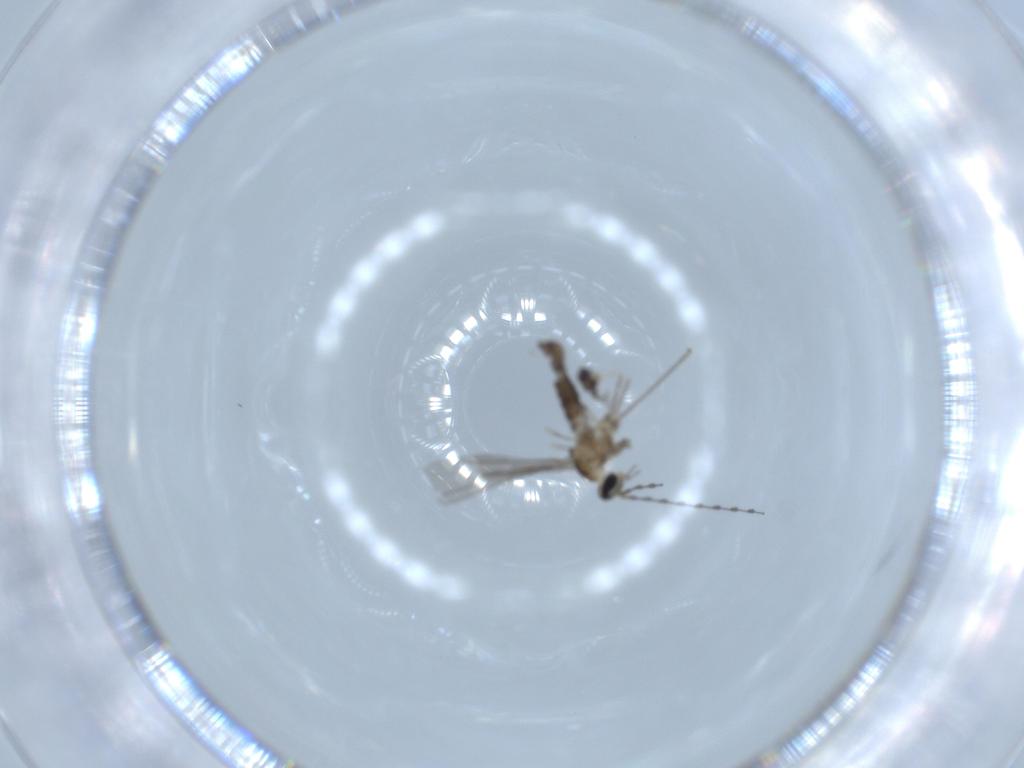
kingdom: Animalia
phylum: Arthropoda
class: Insecta
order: Diptera
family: Cecidomyiidae
